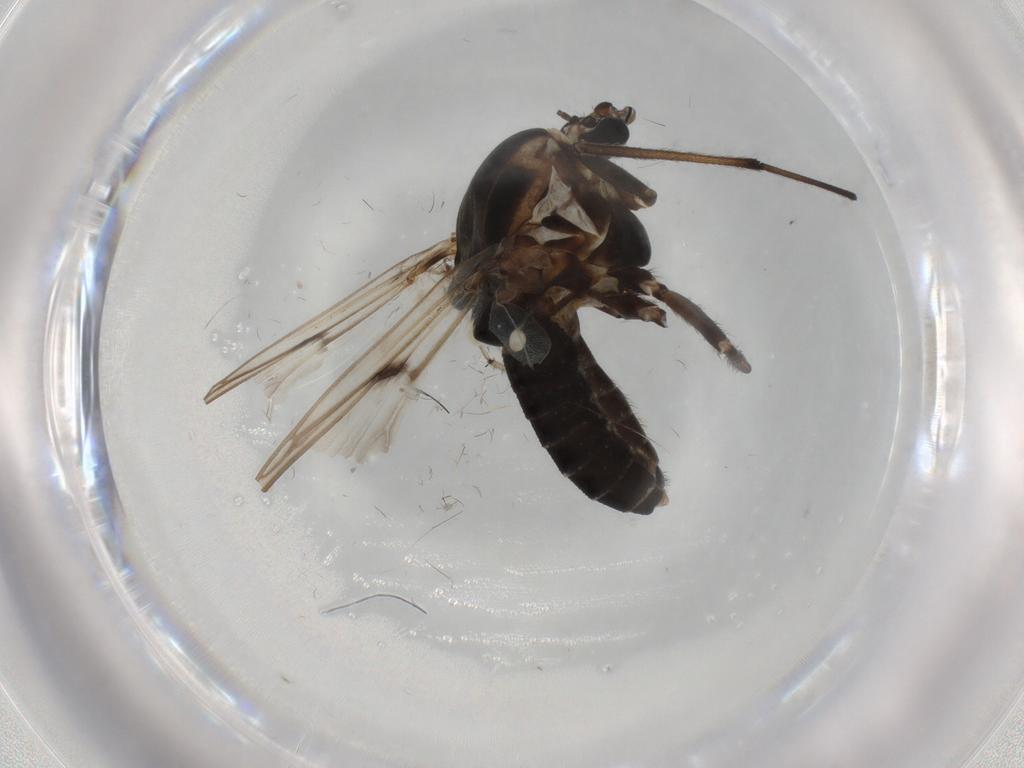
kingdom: Animalia
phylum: Arthropoda
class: Insecta
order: Diptera
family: Chironomidae
